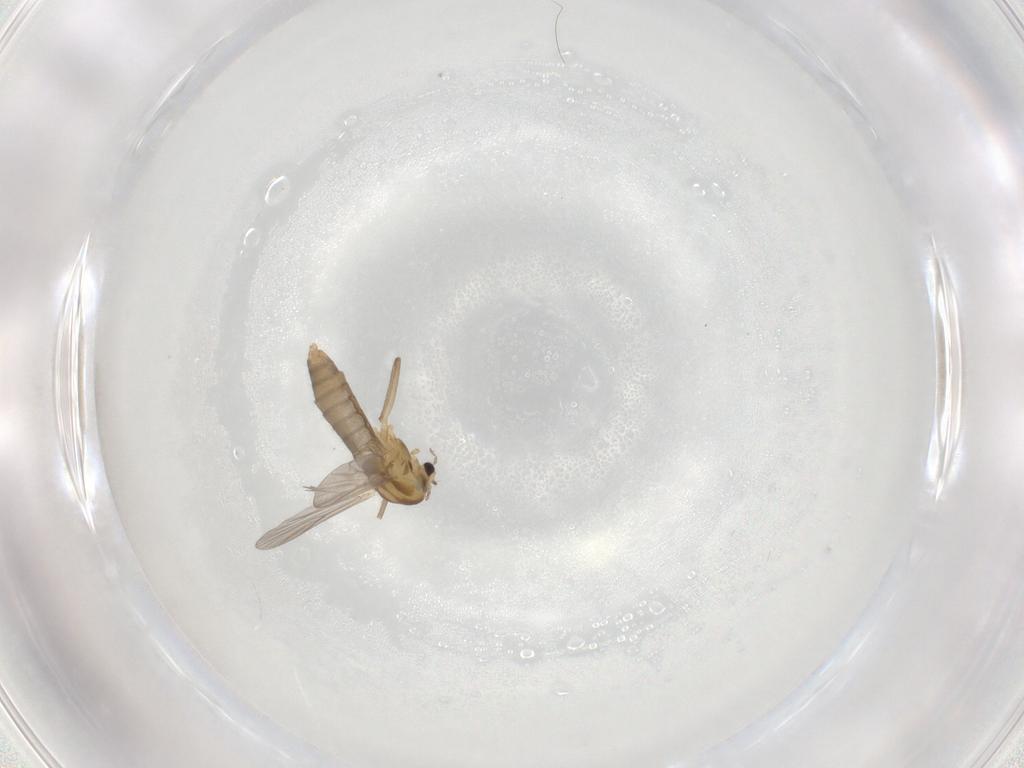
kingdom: Animalia
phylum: Arthropoda
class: Insecta
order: Diptera
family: Chironomidae
